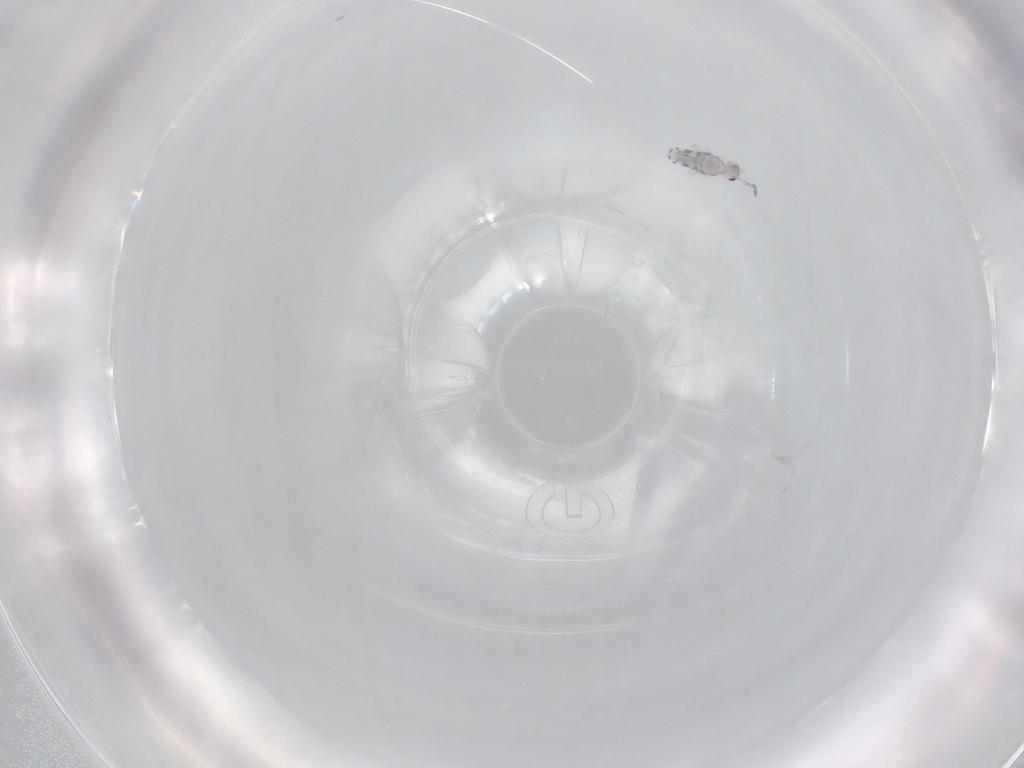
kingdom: Animalia
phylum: Arthropoda
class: Collembola
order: Entomobryomorpha
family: Entomobryidae
